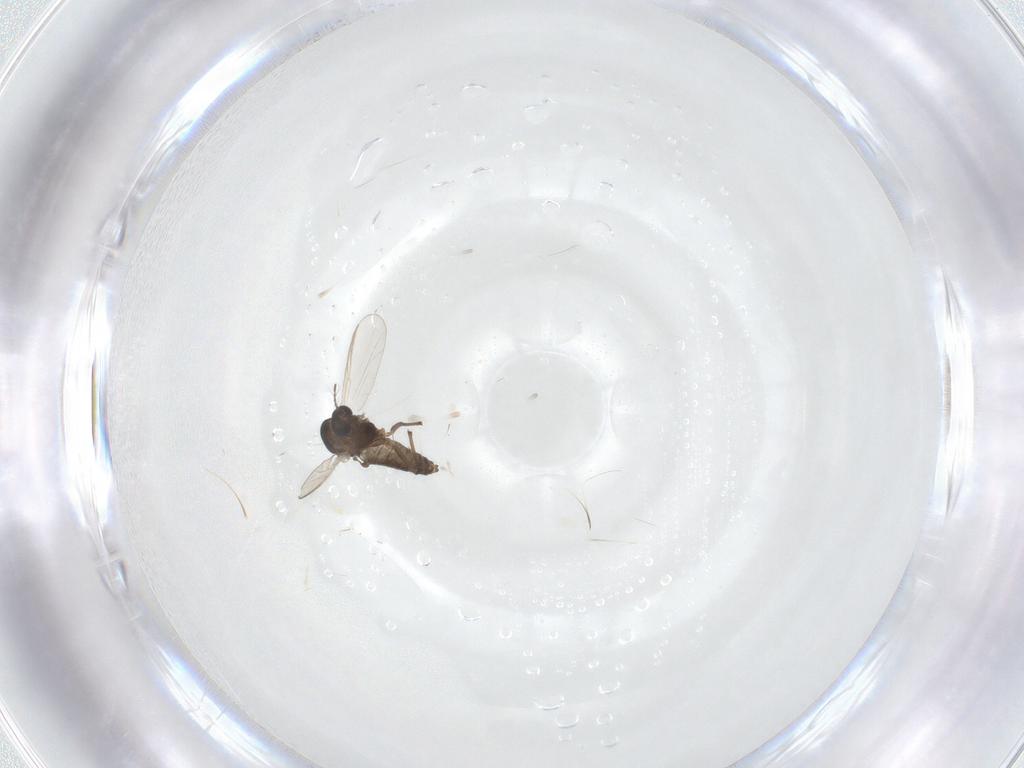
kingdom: Animalia
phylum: Arthropoda
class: Insecta
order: Diptera
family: Chironomidae
